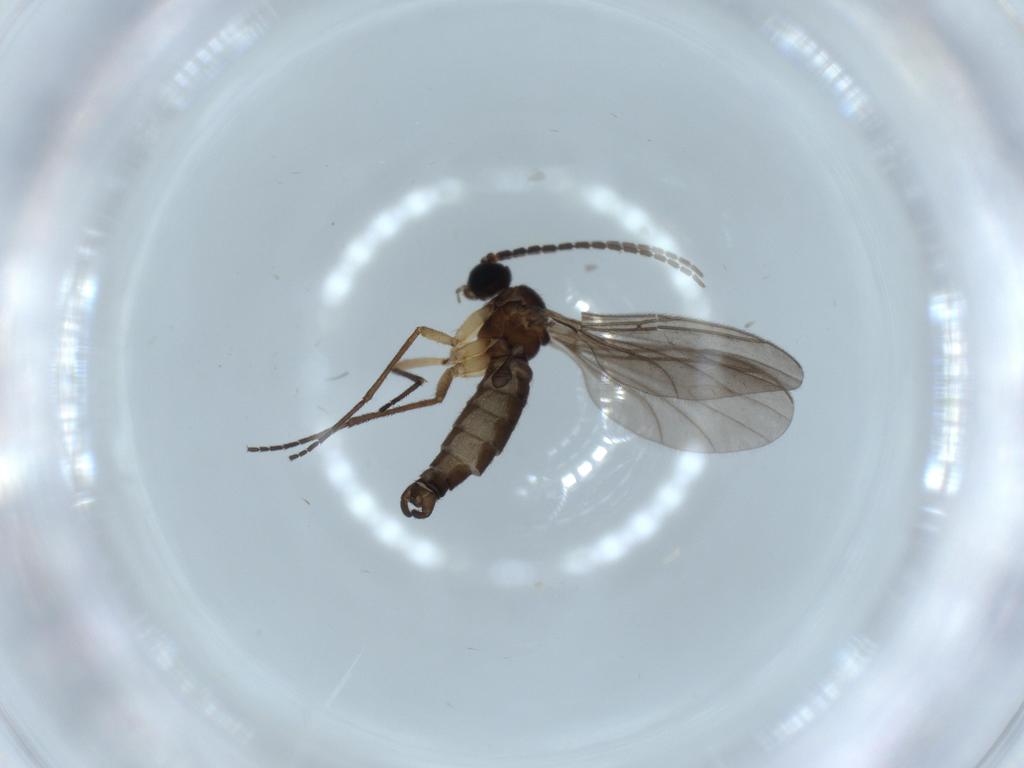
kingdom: Animalia
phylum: Arthropoda
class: Insecta
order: Diptera
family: Sciaridae
